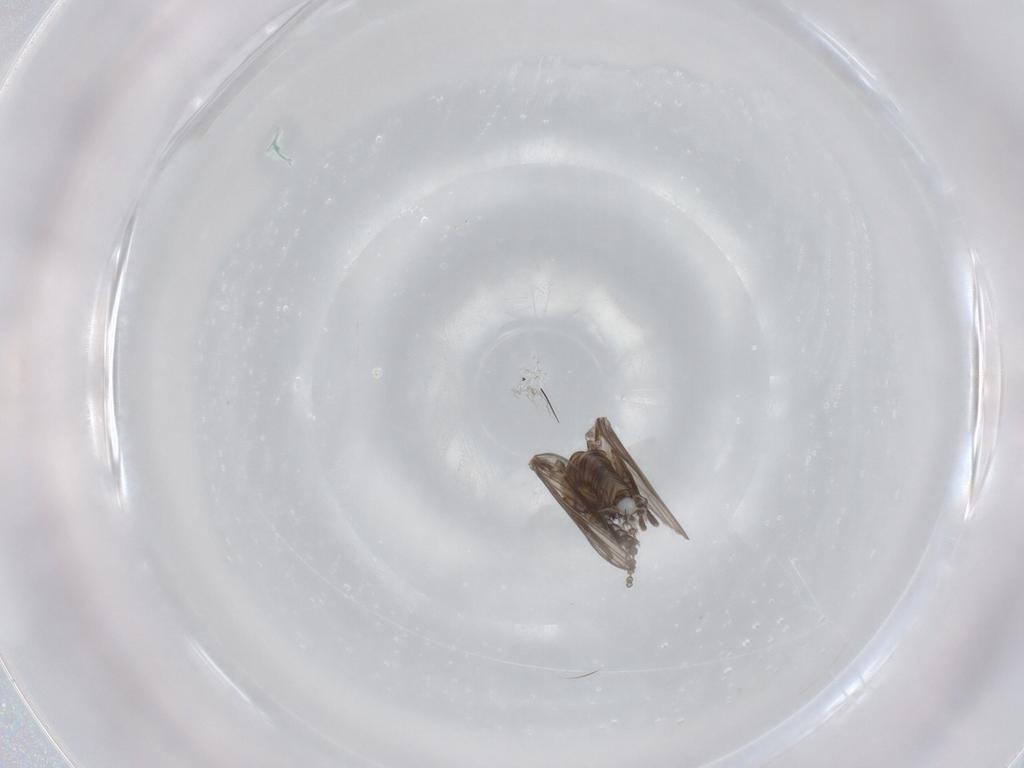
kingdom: Animalia
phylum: Arthropoda
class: Insecta
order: Diptera
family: Psychodidae
